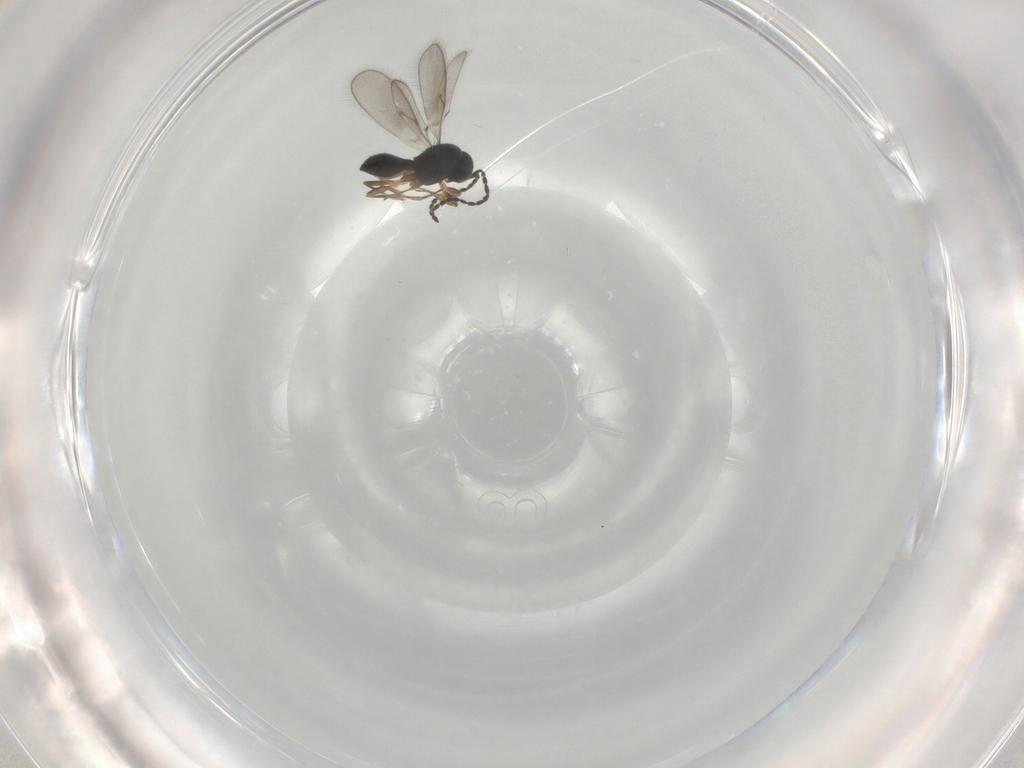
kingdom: Animalia
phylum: Arthropoda
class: Insecta
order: Hymenoptera
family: Scelionidae
